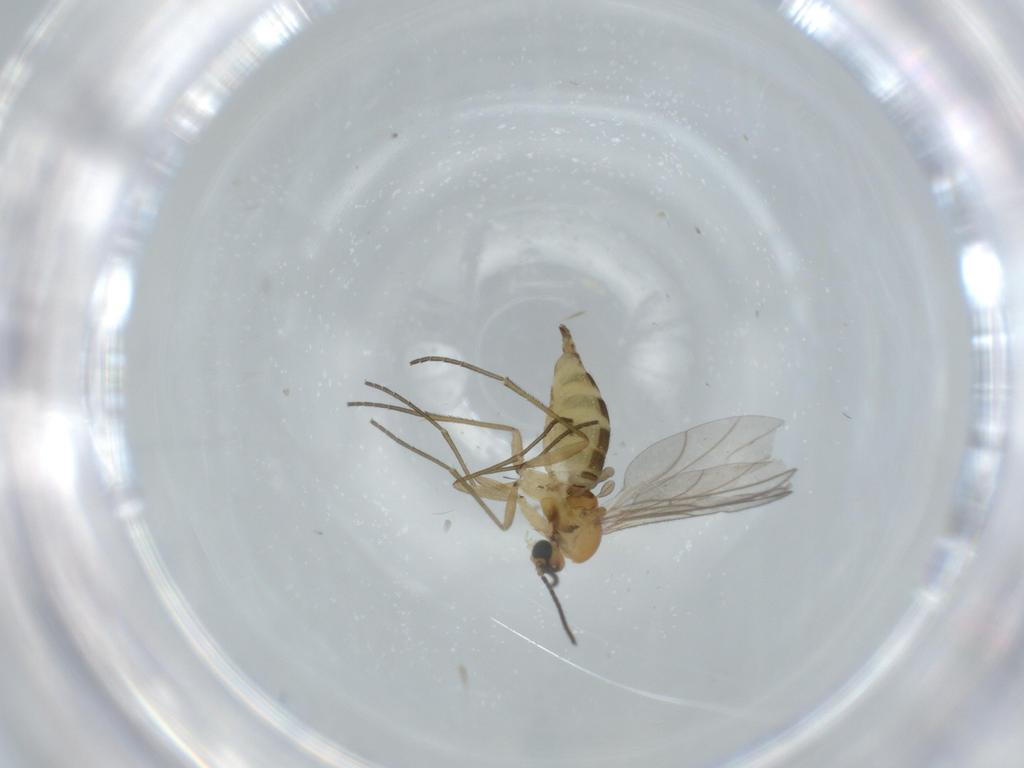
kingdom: Animalia
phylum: Arthropoda
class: Insecta
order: Diptera
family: Sciaridae
